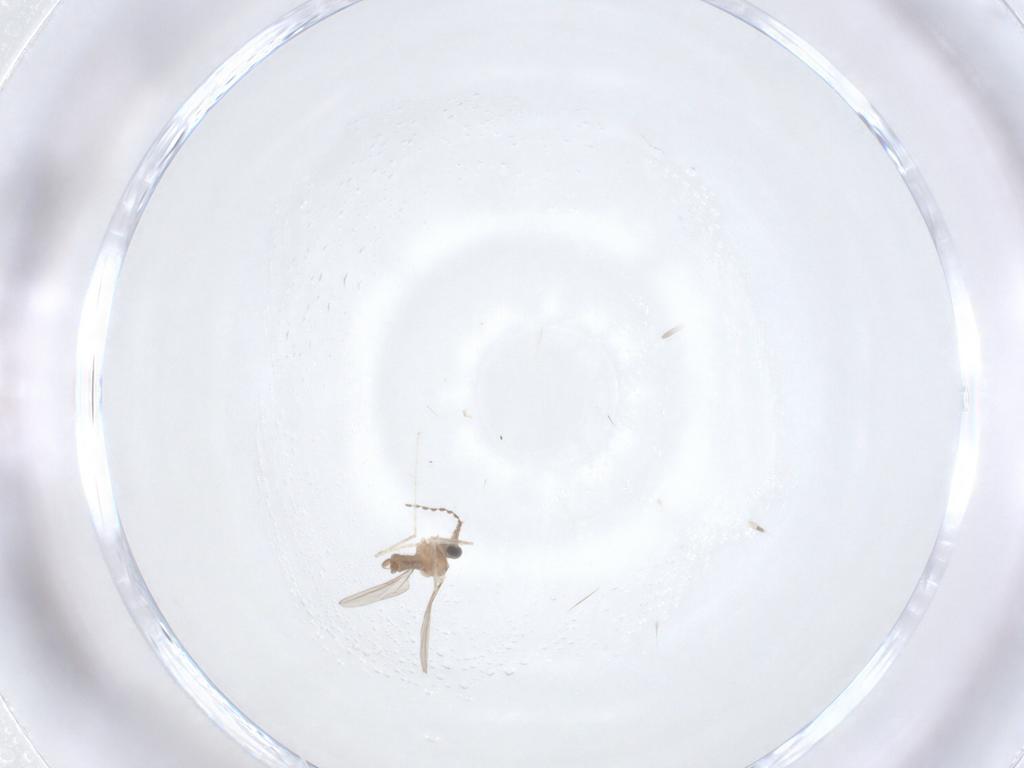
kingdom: Animalia
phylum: Arthropoda
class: Insecta
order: Diptera
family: Cecidomyiidae
